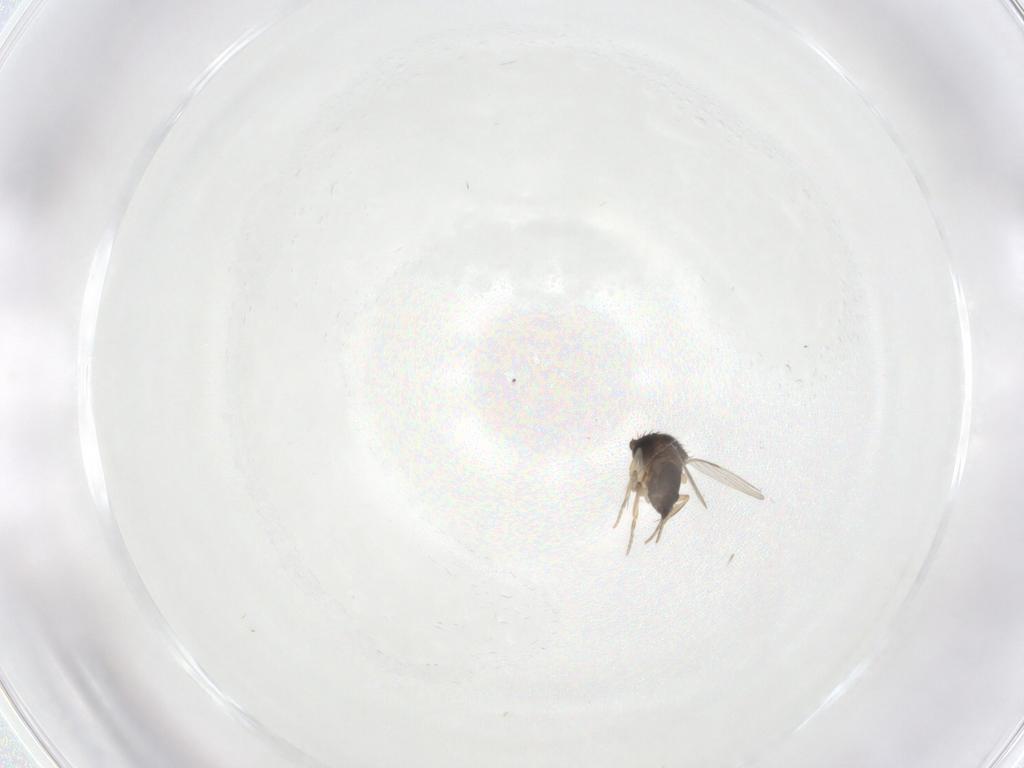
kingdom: Animalia
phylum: Arthropoda
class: Insecta
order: Diptera
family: Phoridae
